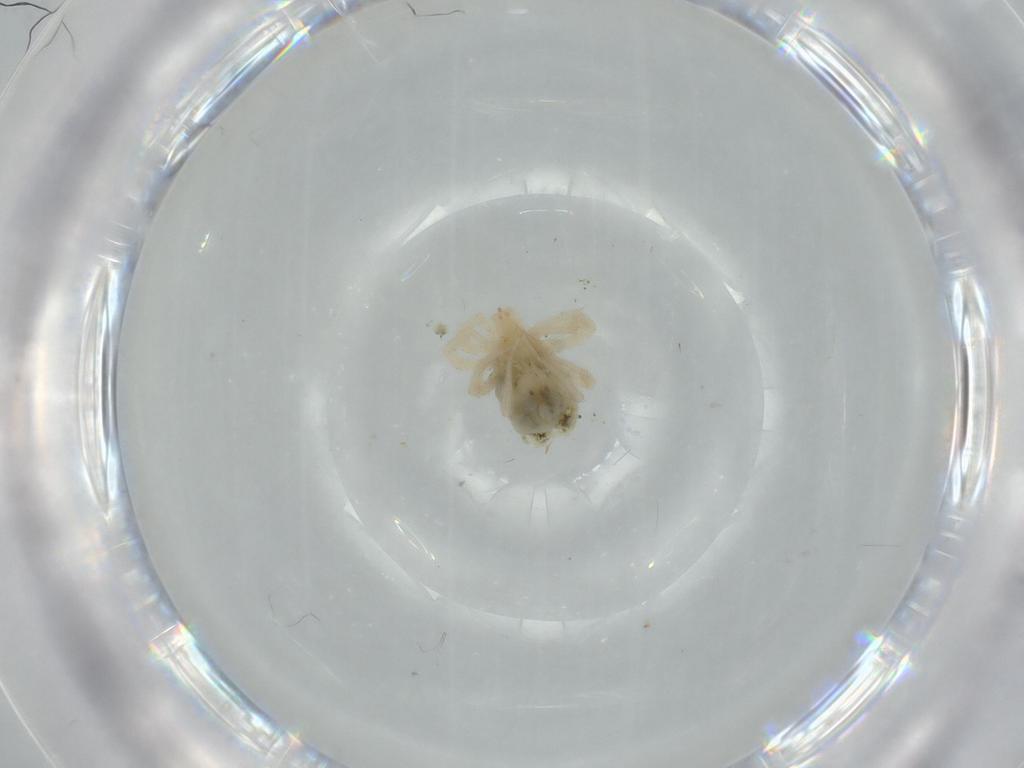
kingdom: Animalia
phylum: Arthropoda
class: Arachnida
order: Trombidiformes
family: Anystidae
